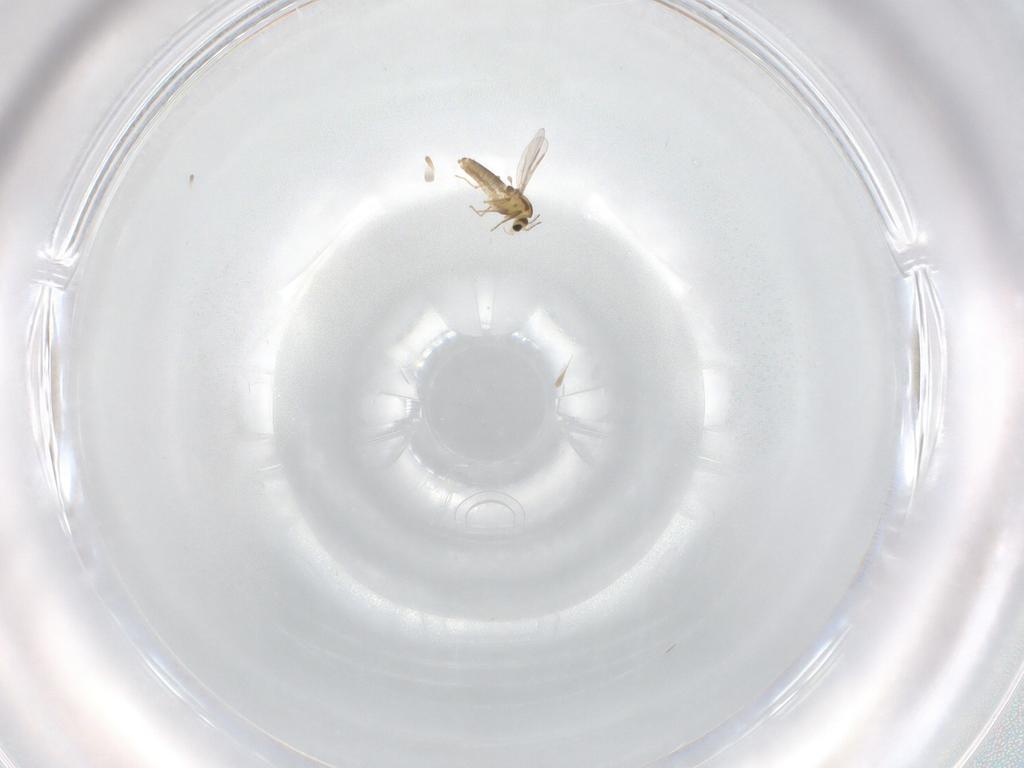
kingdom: Animalia
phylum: Arthropoda
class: Insecta
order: Diptera
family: Chironomidae
